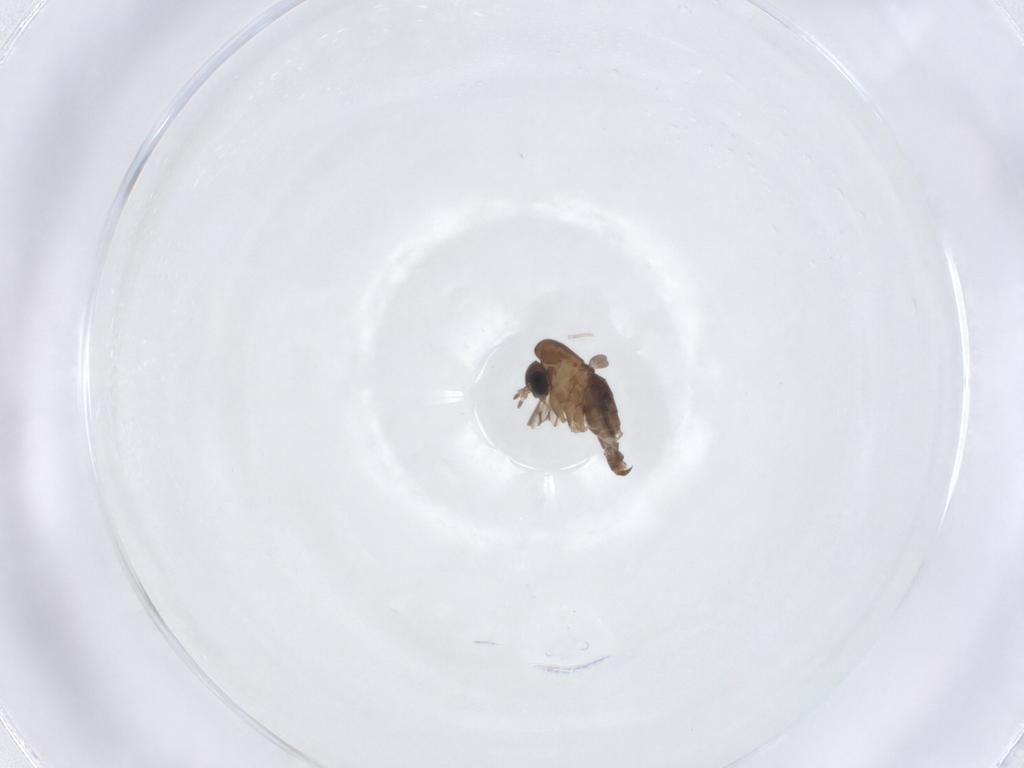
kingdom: Animalia
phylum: Arthropoda
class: Insecta
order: Diptera
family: Psychodidae
